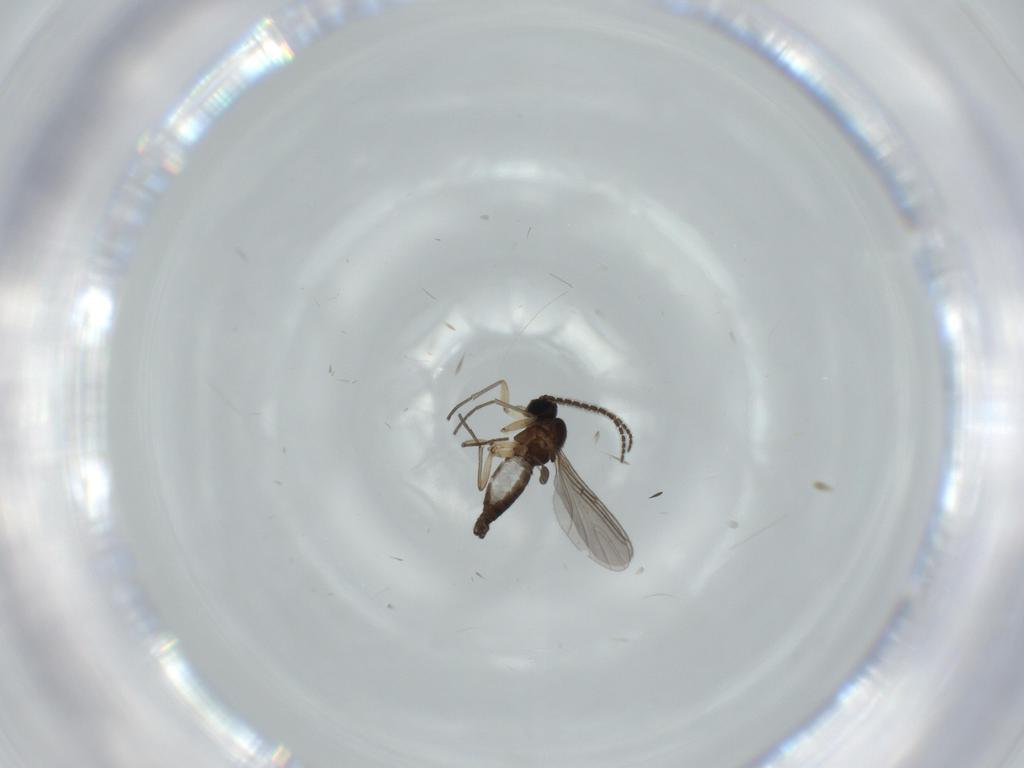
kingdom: Animalia
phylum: Arthropoda
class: Insecta
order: Diptera
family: Sciaridae
